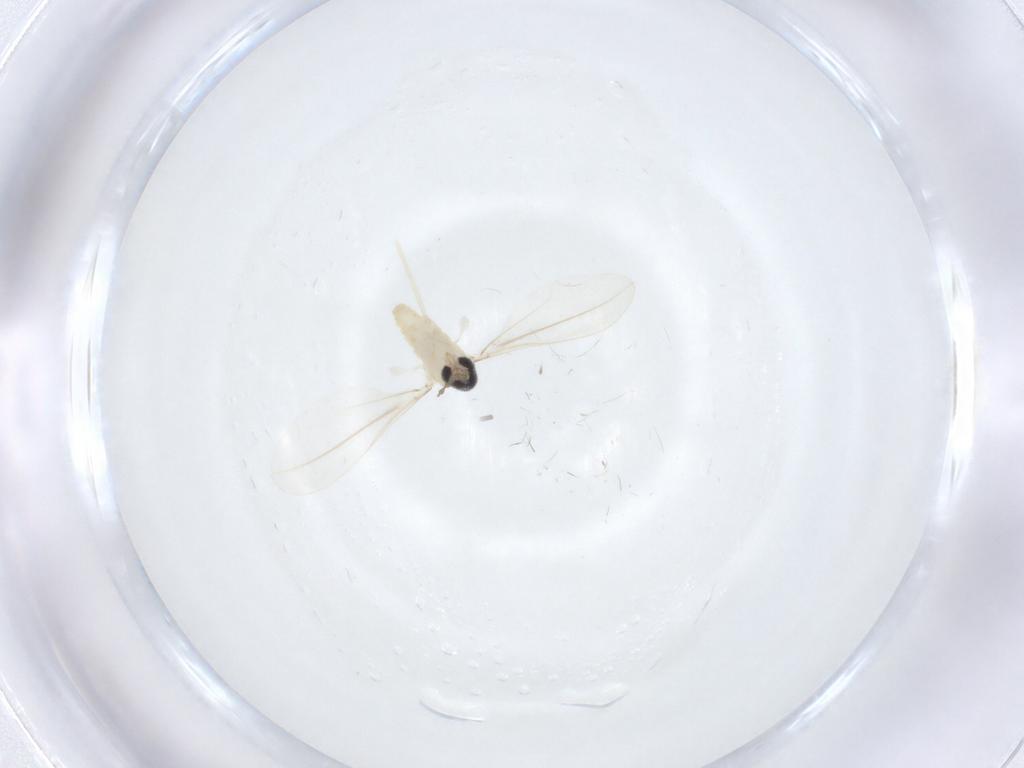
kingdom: Animalia
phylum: Arthropoda
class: Insecta
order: Diptera
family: Cecidomyiidae
